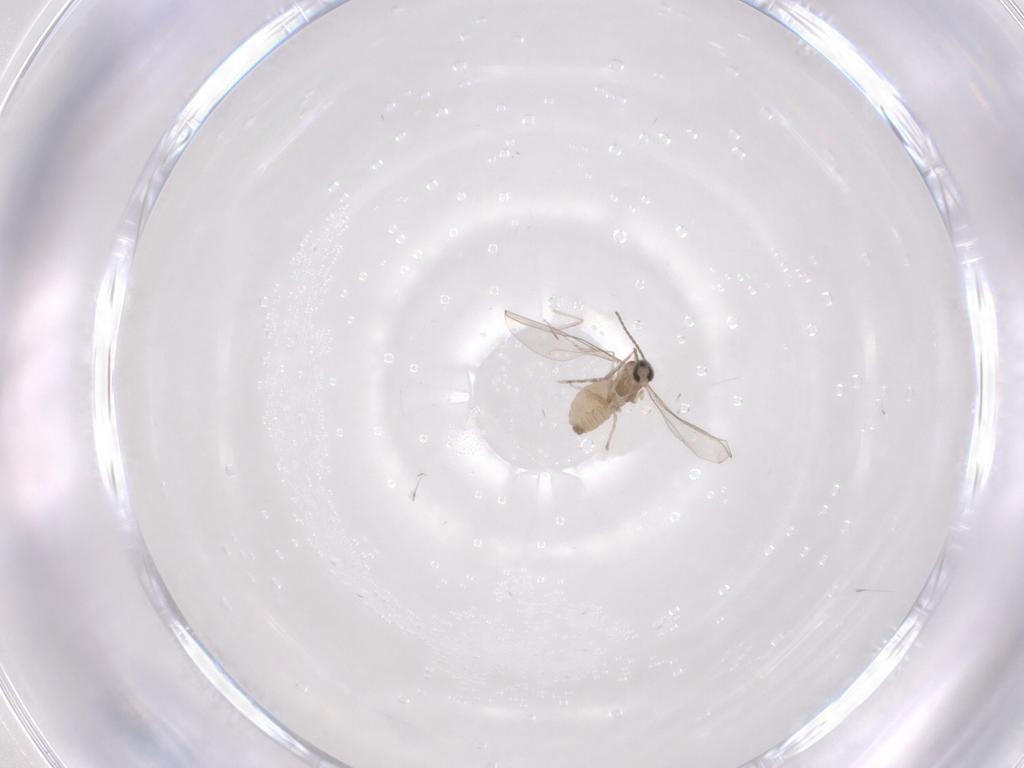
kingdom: Animalia
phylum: Arthropoda
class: Insecta
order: Diptera
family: Cecidomyiidae
